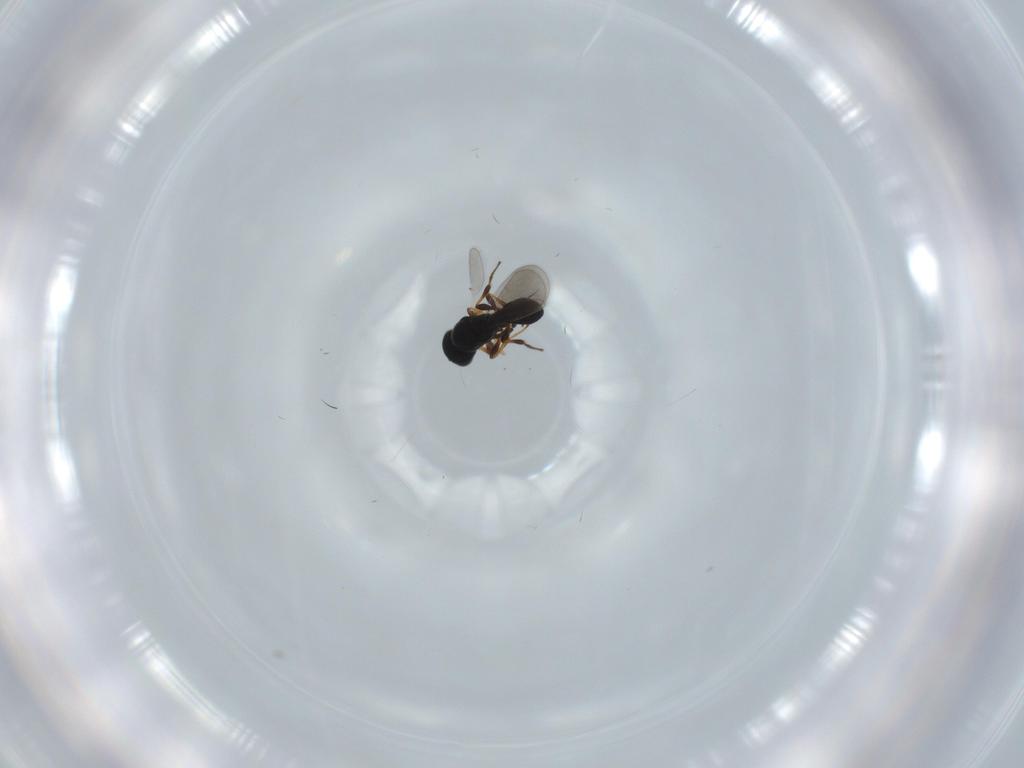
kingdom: Animalia
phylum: Arthropoda
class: Insecta
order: Hymenoptera
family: Platygastridae
